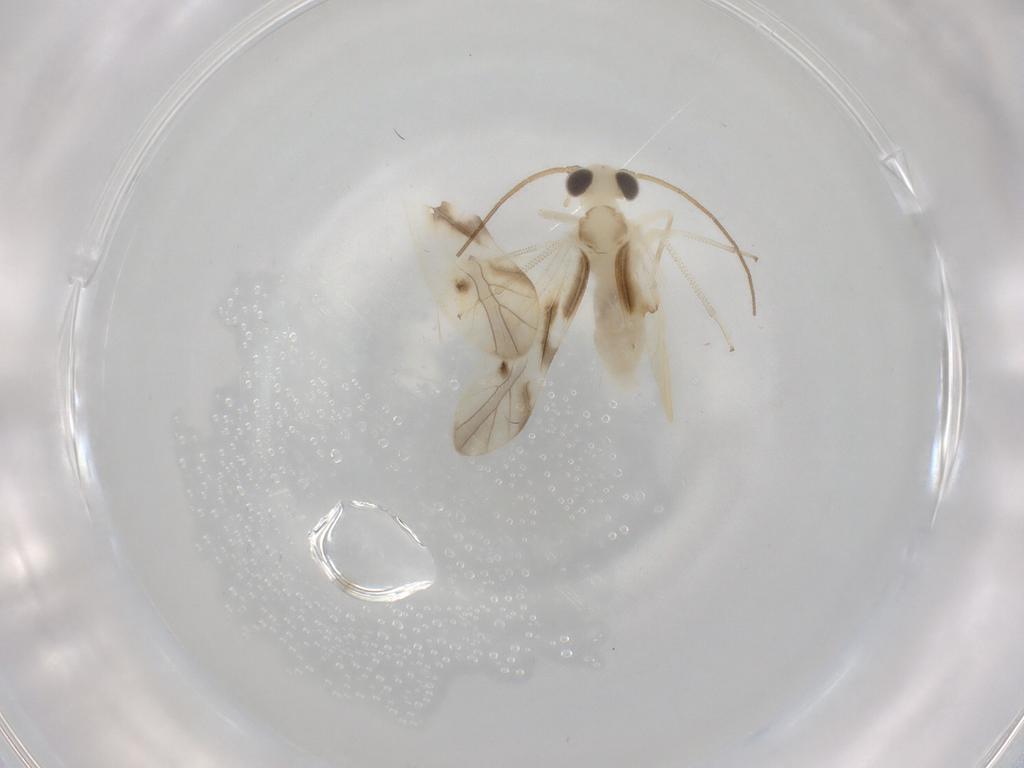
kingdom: Animalia
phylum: Arthropoda
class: Insecta
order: Psocodea
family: Caeciliusidae
